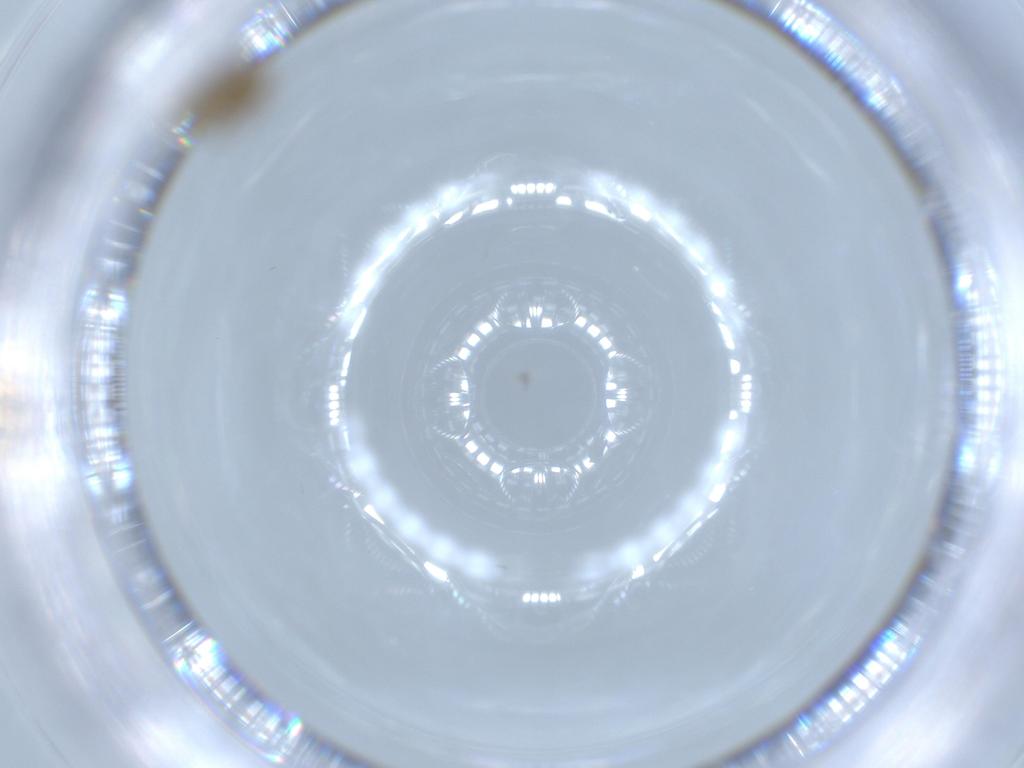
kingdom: Animalia
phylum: Arthropoda
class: Insecta
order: Diptera
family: Chironomidae
